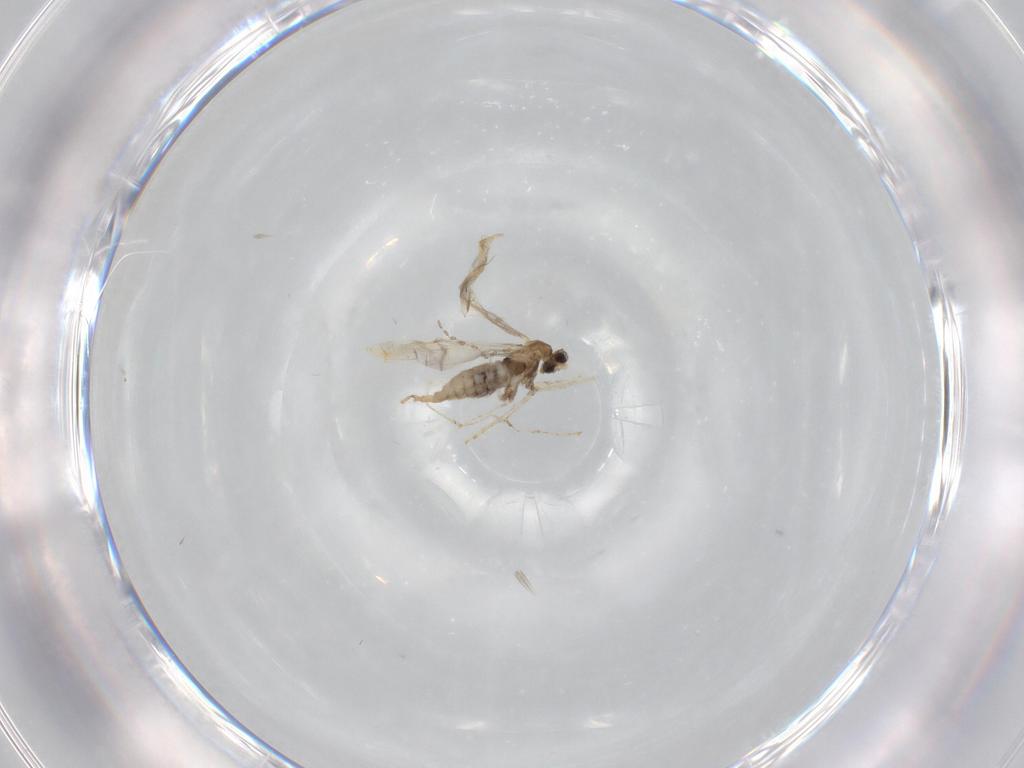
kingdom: Animalia
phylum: Arthropoda
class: Insecta
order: Diptera
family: Cecidomyiidae
